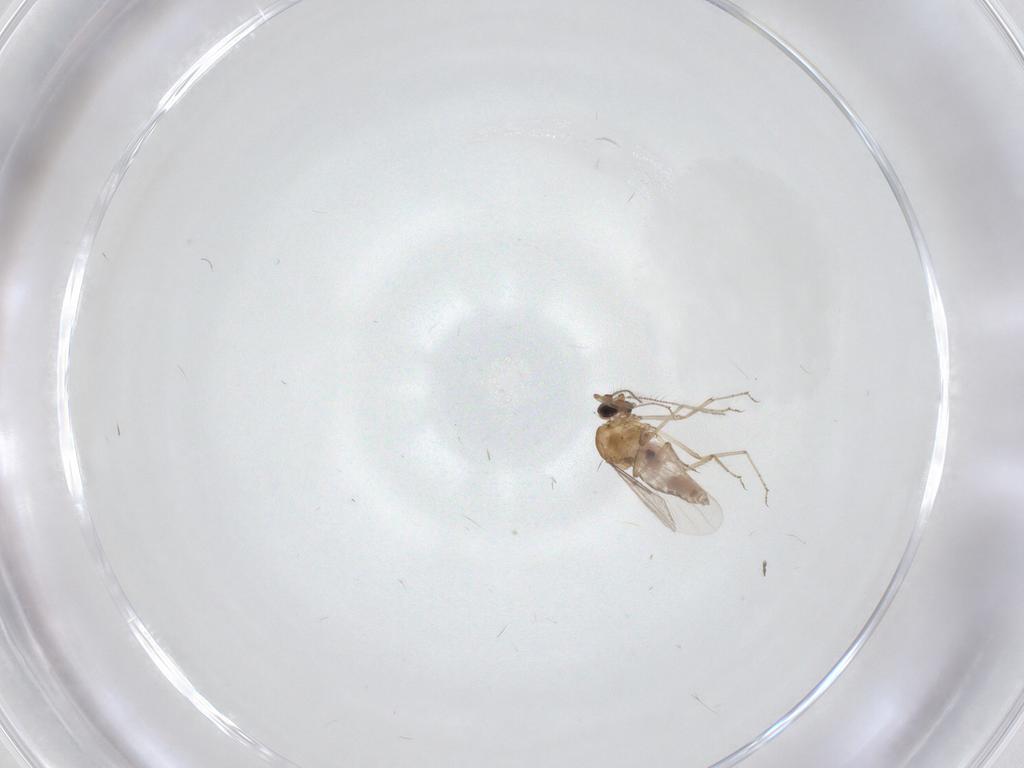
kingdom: Animalia
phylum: Arthropoda
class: Insecta
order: Diptera
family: Ceratopogonidae
